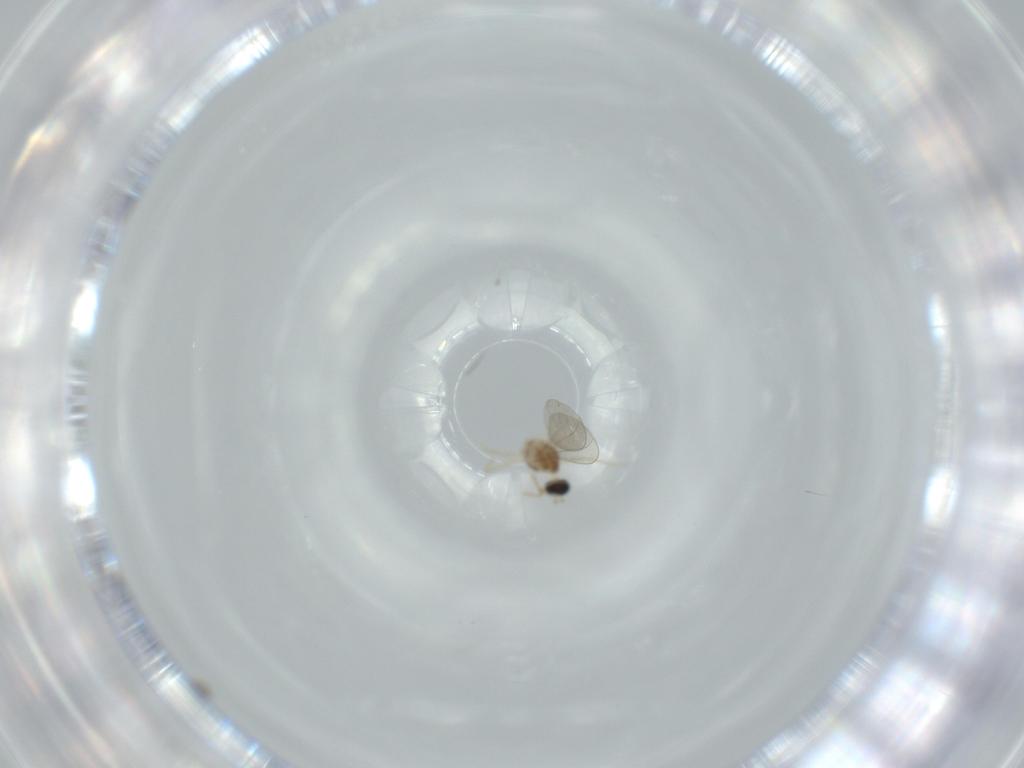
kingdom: Animalia
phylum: Arthropoda
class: Insecta
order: Diptera
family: Cecidomyiidae
